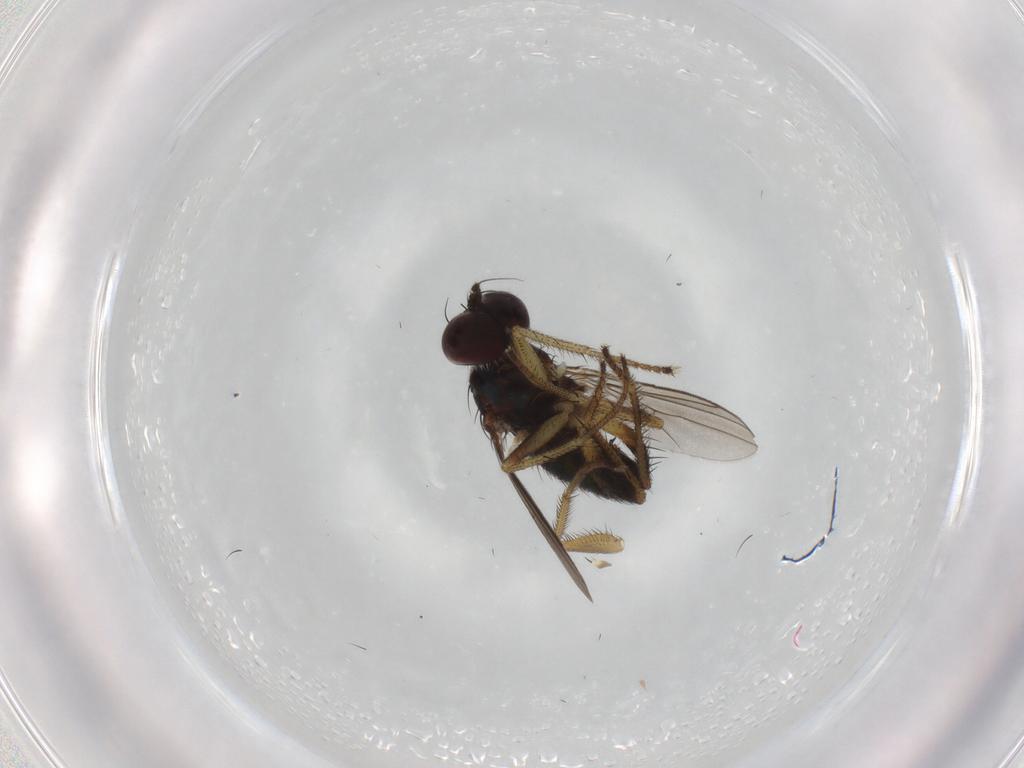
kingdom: Animalia
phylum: Arthropoda
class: Insecta
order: Diptera
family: Dolichopodidae
